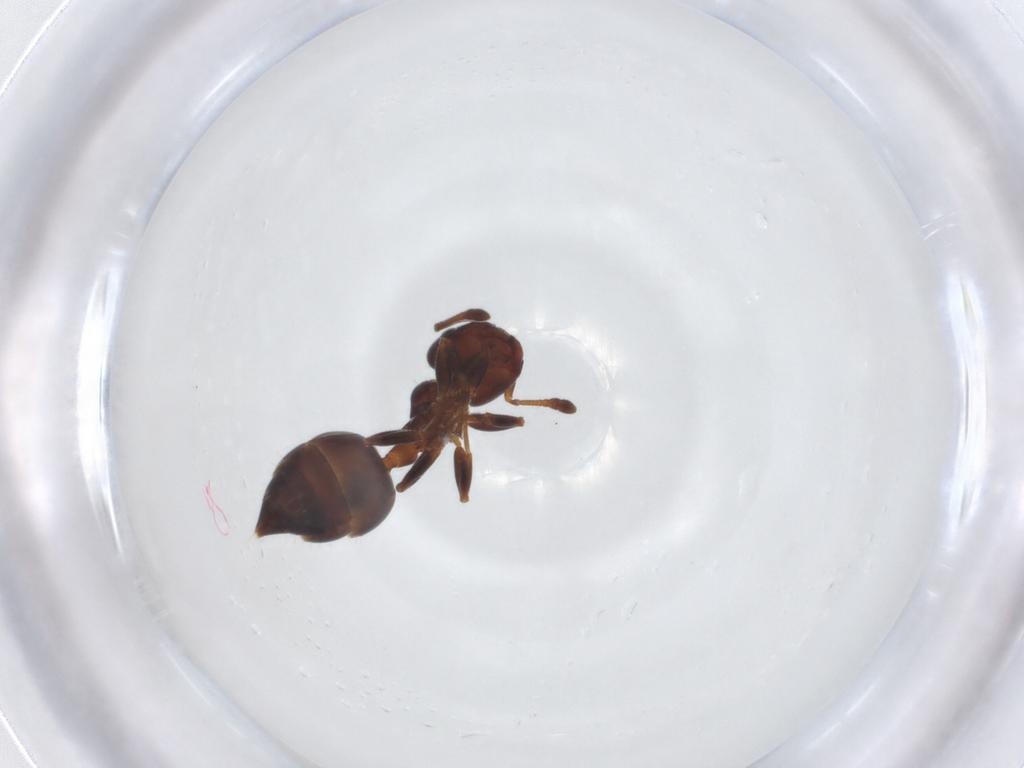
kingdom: Animalia
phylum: Arthropoda
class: Insecta
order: Hymenoptera
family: Formicidae
